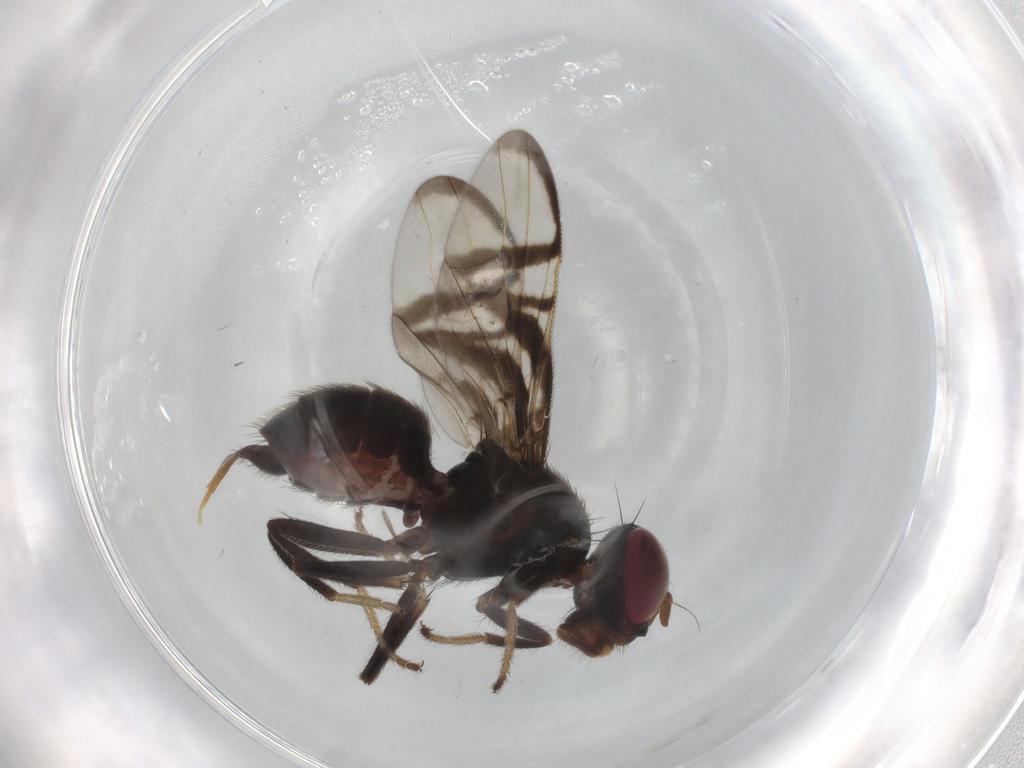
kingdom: Animalia
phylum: Arthropoda
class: Insecta
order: Diptera
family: Platystomatidae
